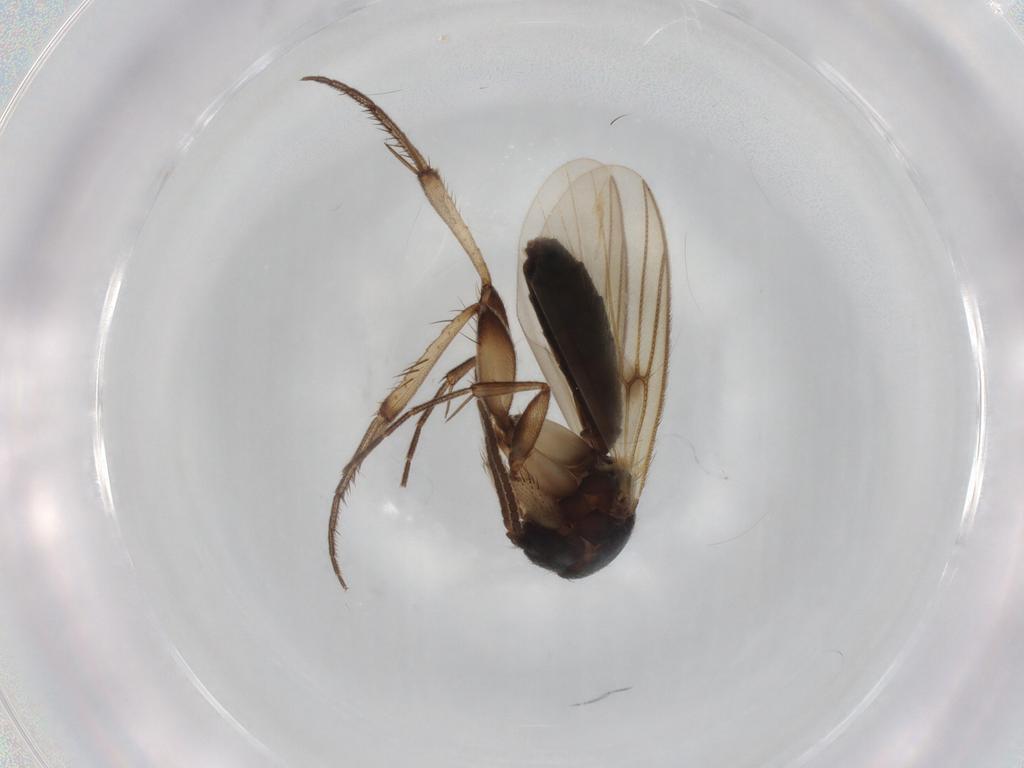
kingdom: Animalia
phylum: Arthropoda
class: Insecta
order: Diptera
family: Mycetophilidae
